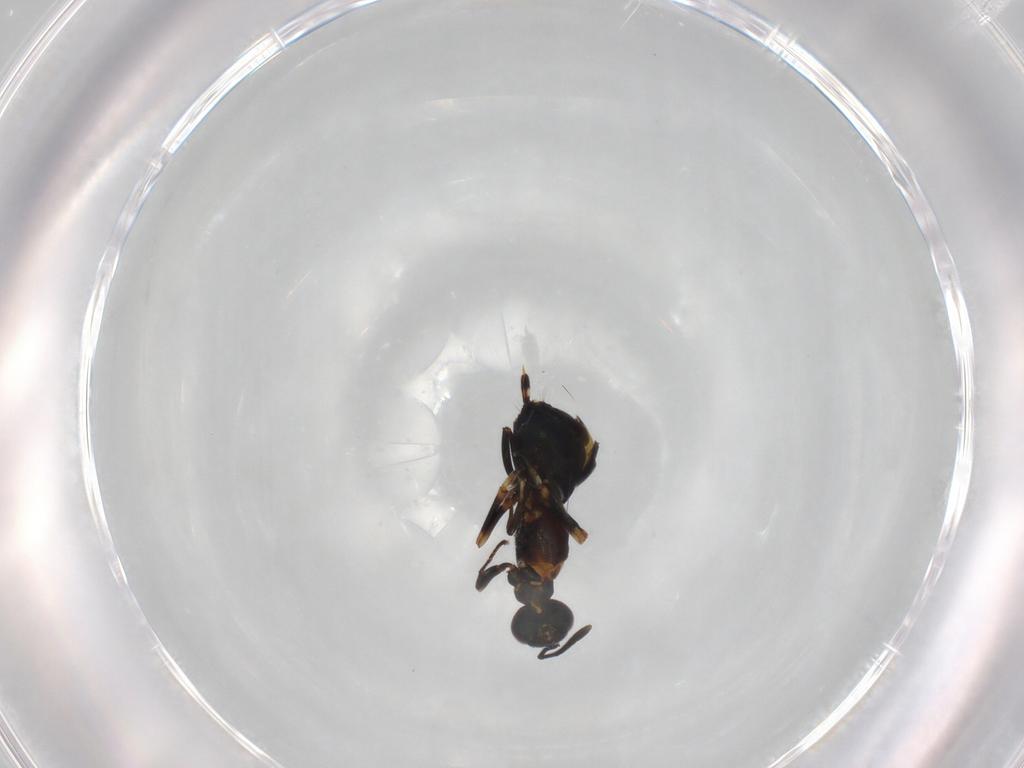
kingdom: Animalia
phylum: Arthropoda
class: Insecta
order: Hymenoptera
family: Eupelmidae
